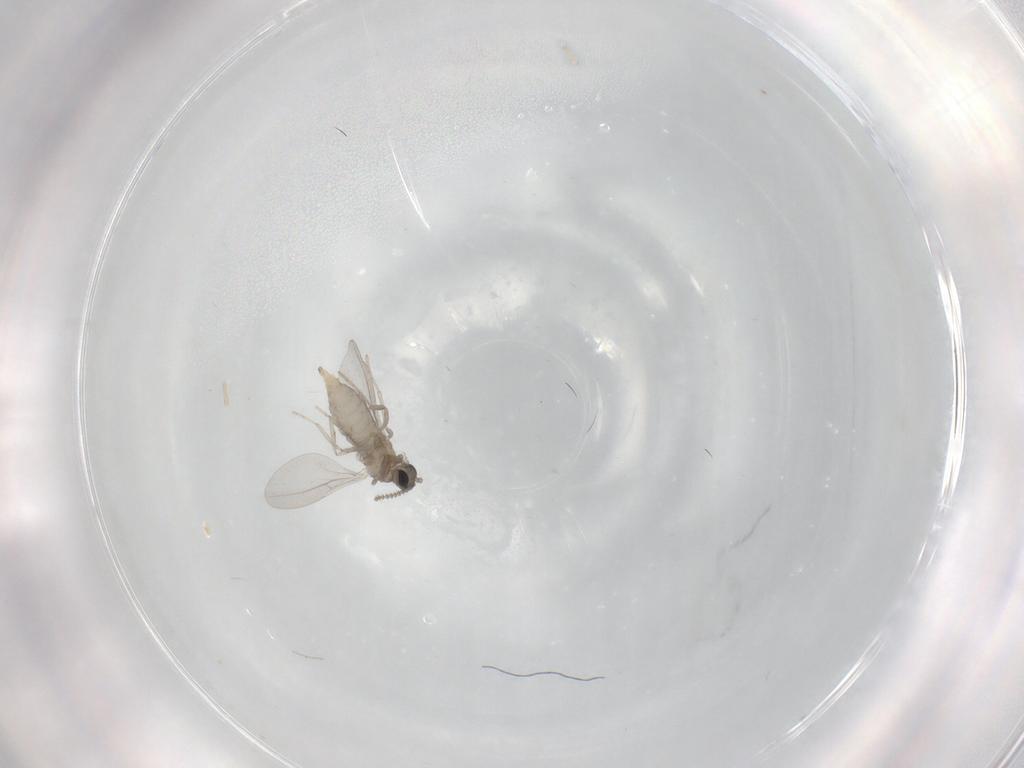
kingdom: Animalia
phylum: Arthropoda
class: Insecta
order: Diptera
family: Cecidomyiidae
